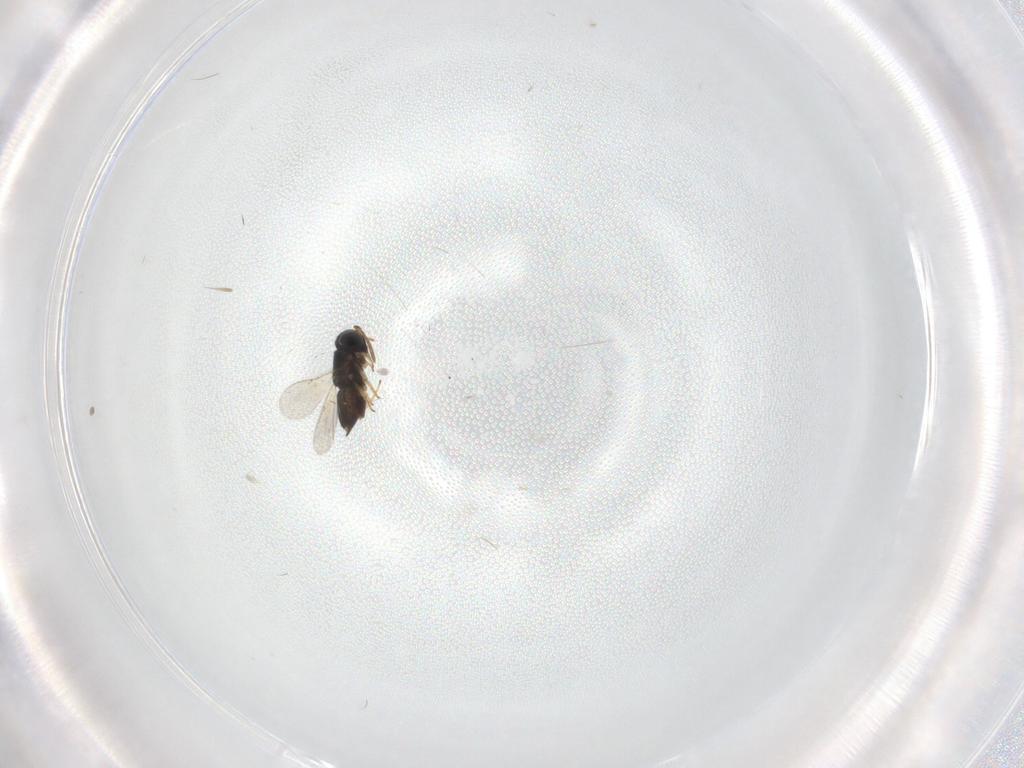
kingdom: Animalia
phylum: Arthropoda
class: Insecta
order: Hymenoptera
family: Encyrtidae
